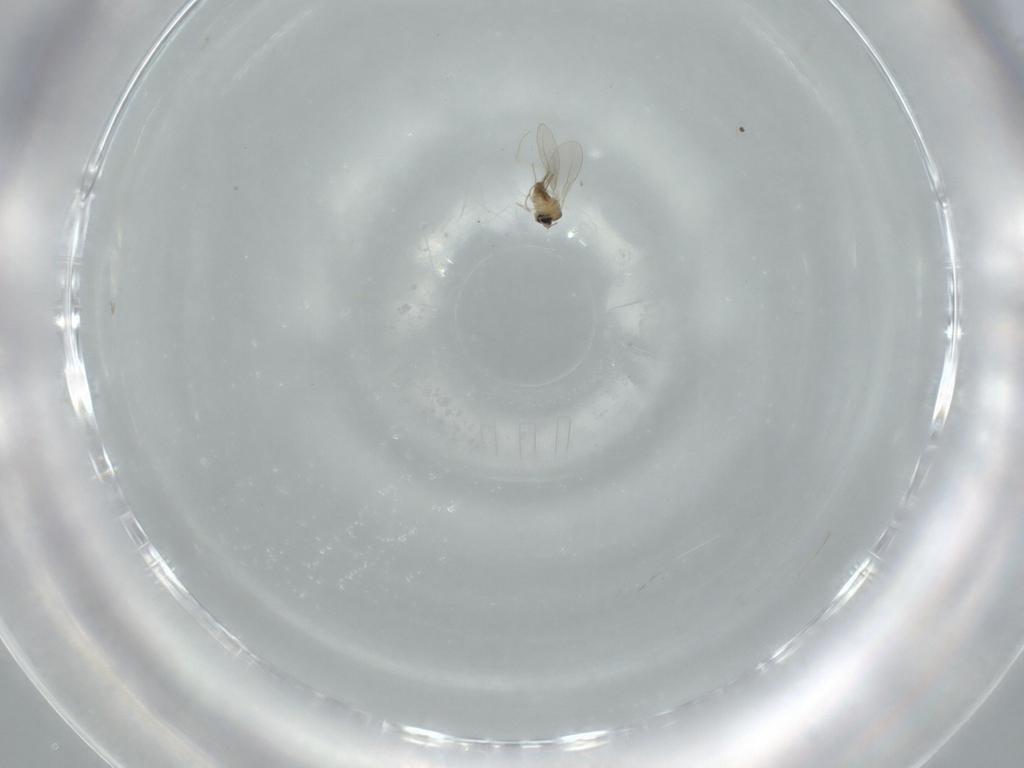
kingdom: Animalia
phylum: Arthropoda
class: Insecta
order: Diptera
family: Cecidomyiidae
